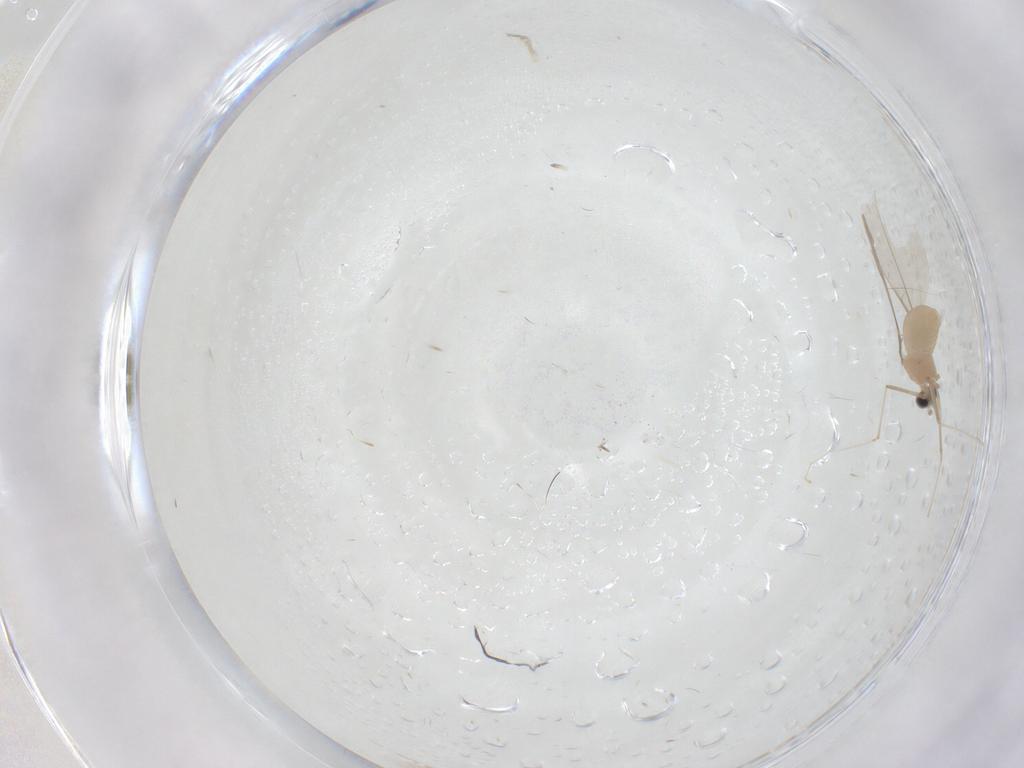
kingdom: Animalia
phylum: Arthropoda
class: Insecta
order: Diptera
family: Cecidomyiidae
